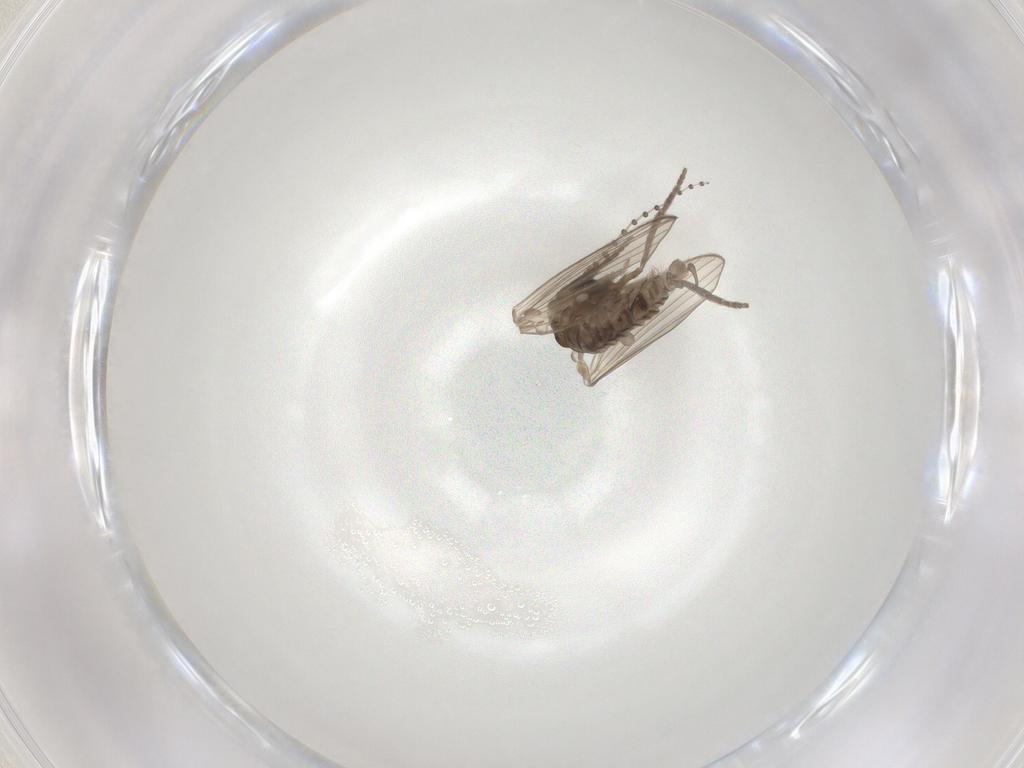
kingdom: Animalia
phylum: Arthropoda
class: Insecta
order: Diptera
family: Psychodidae
